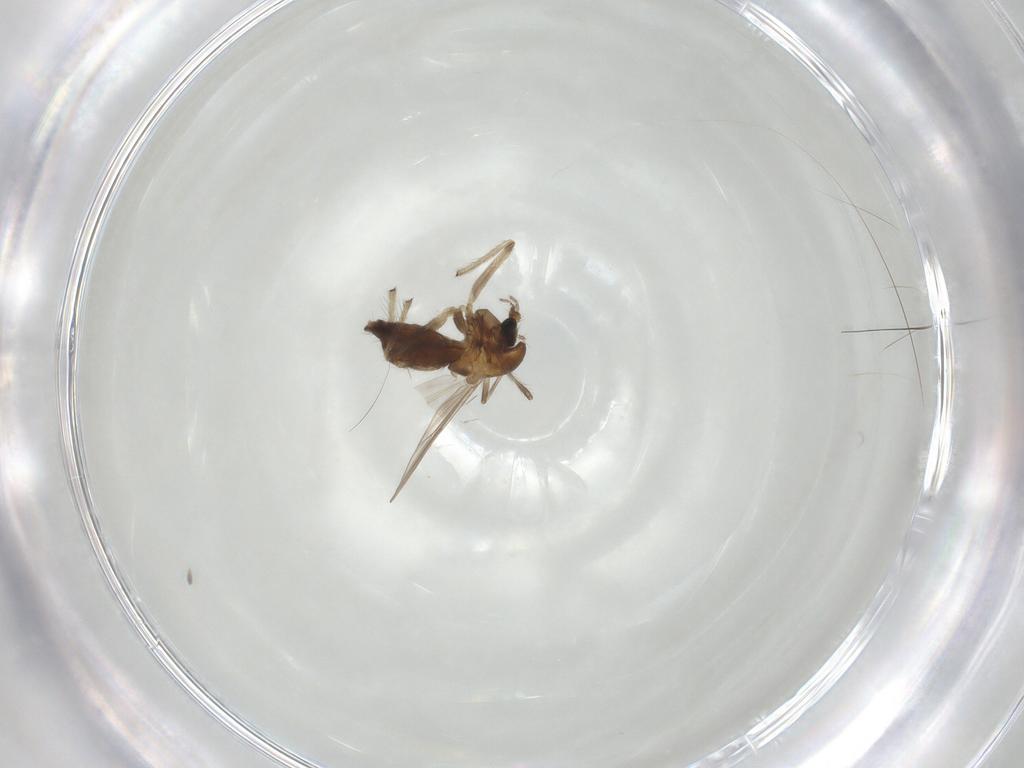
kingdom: Animalia
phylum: Arthropoda
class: Insecta
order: Diptera
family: Chironomidae
